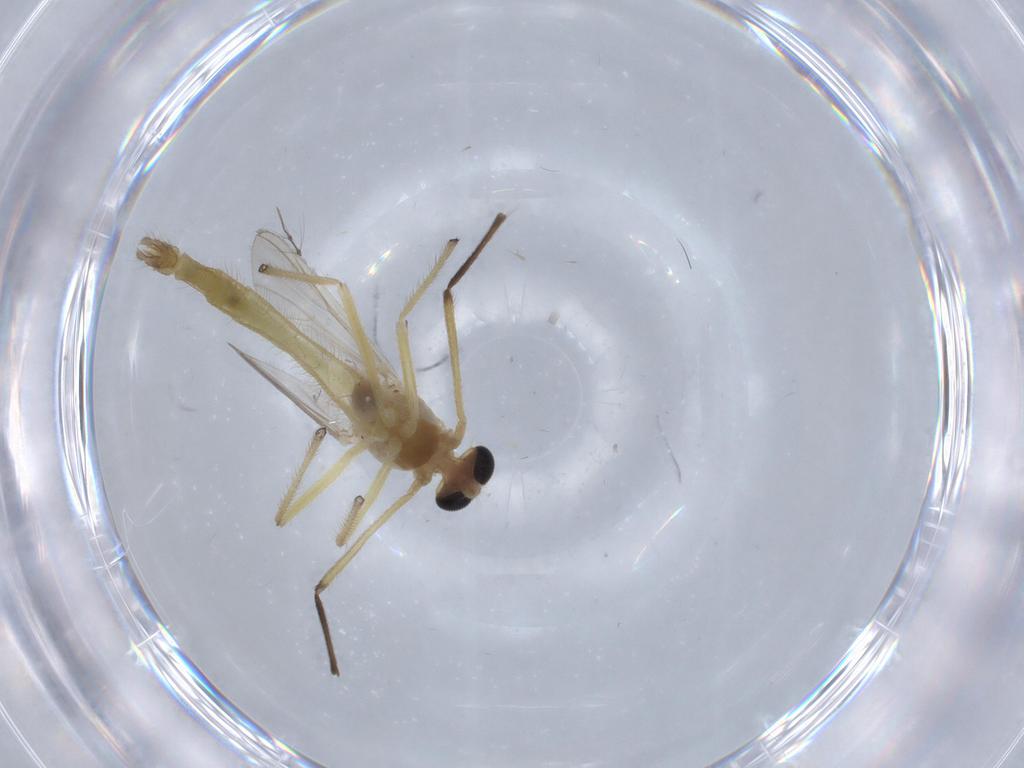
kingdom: Animalia
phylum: Arthropoda
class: Insecta
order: Diptera
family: Chironomidae
